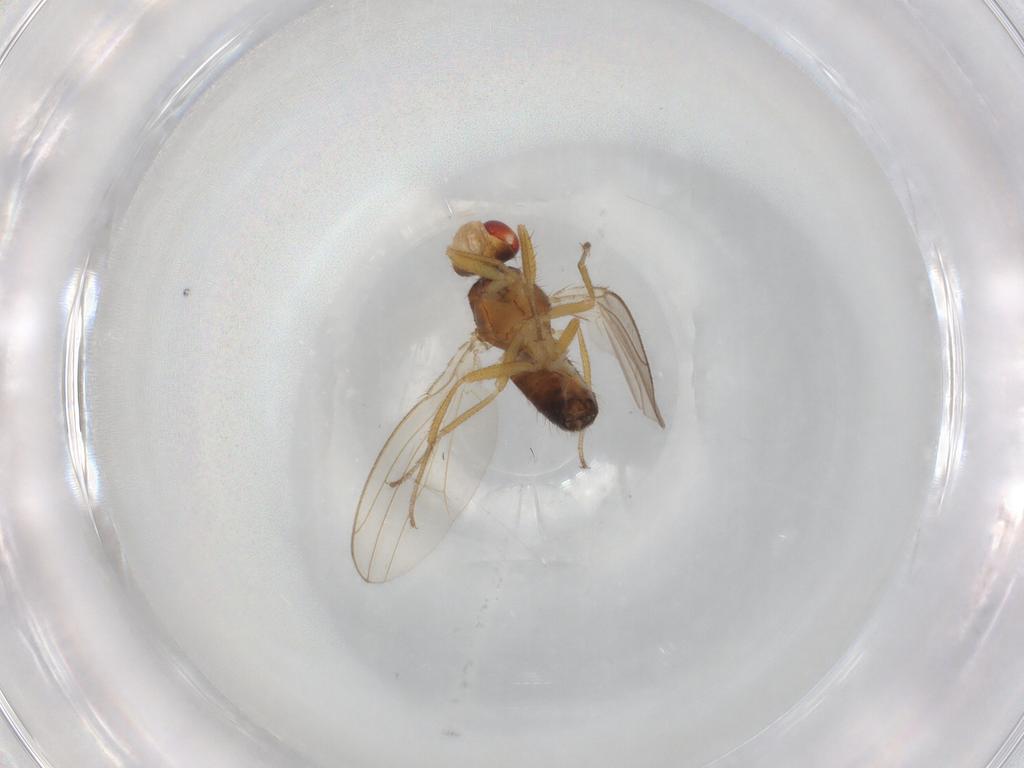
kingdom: Animalia
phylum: Arthropoda
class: Insecta
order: Diptera
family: Drosophilidae
